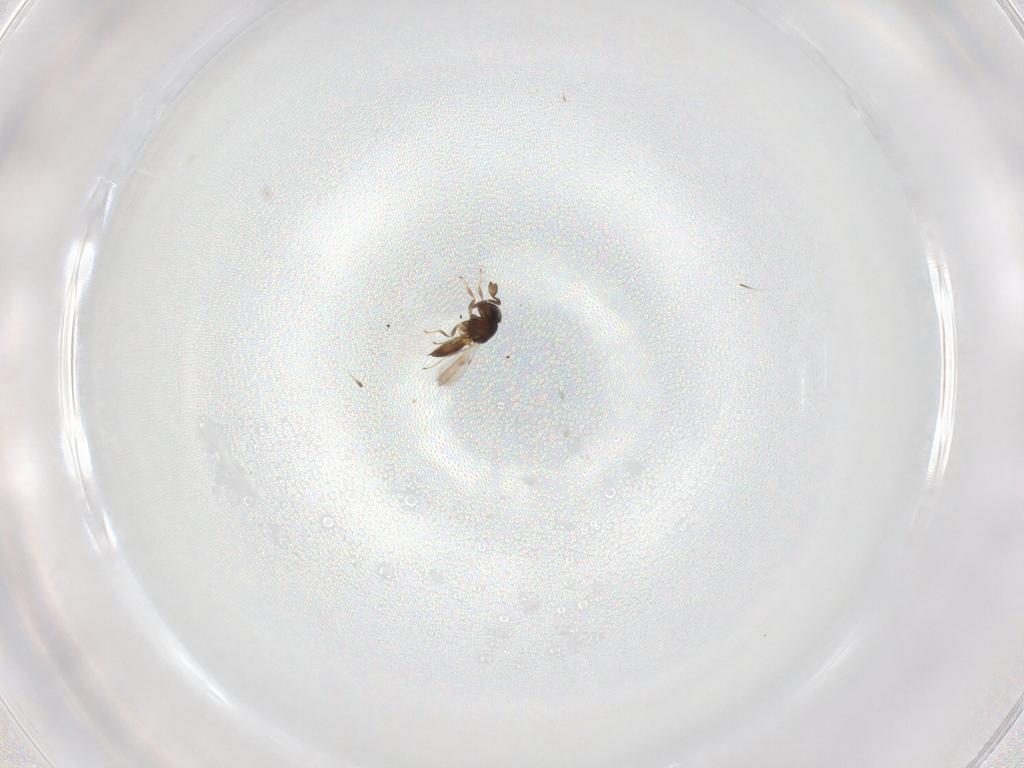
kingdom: Animalia
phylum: Arthropoda
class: Insecta
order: Hymenoptera
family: Scelionidae
